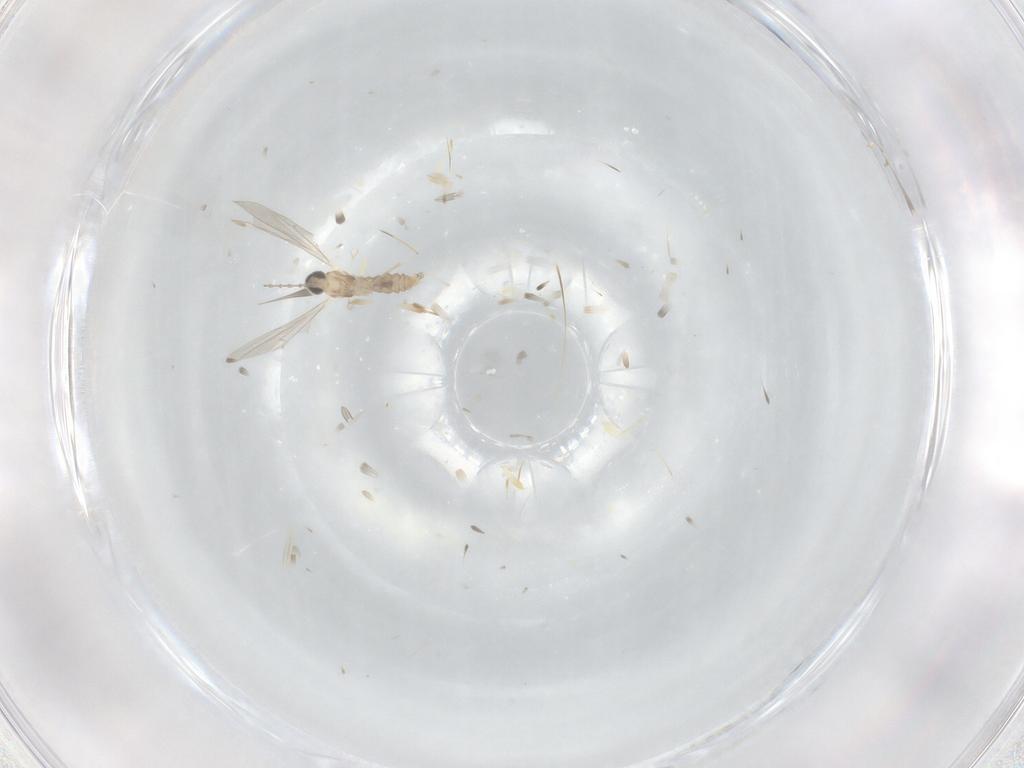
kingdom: Animalia
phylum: Arthropoda
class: Insecta
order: Diptera
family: Cecidomyiidae
